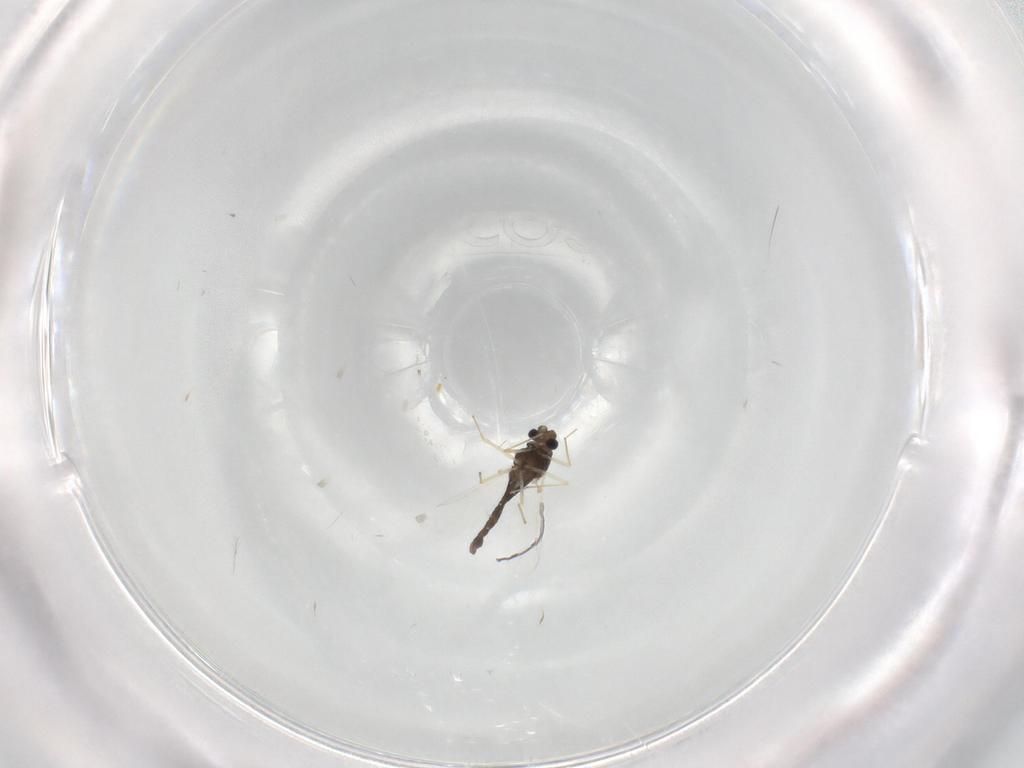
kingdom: Animalia
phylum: Arthropoda
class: Insecta
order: Diptera
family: Chironomidae
